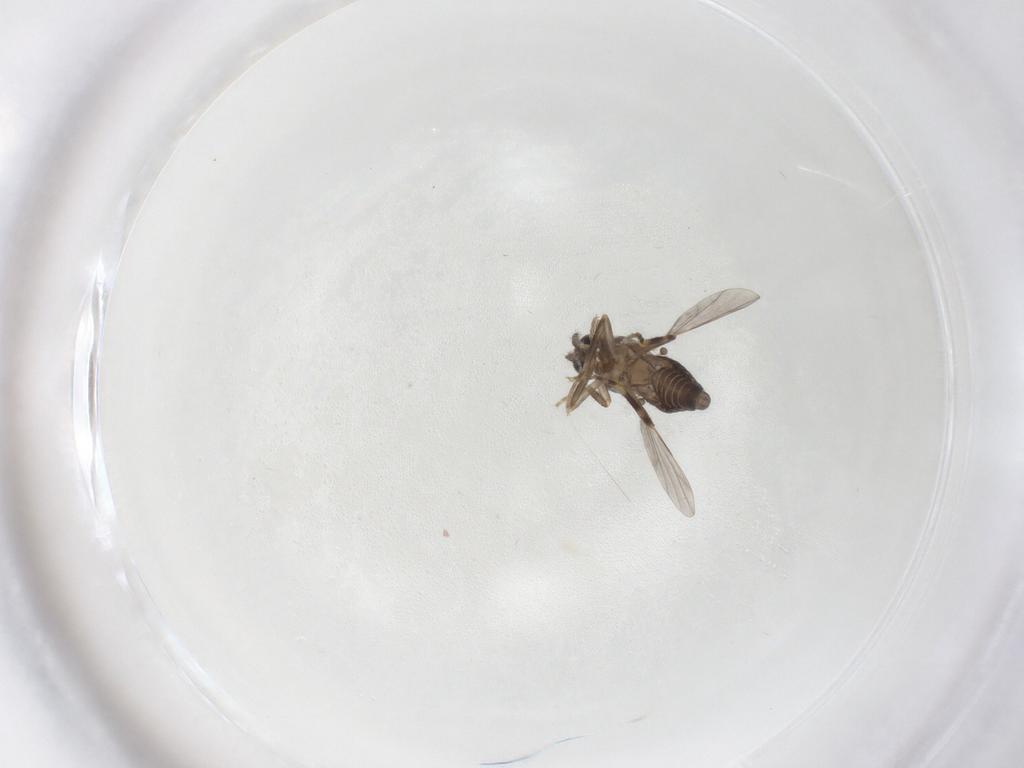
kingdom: Animalia
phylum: Arthropoda
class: Insecta
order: Diptera
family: Ceratopogonidae
